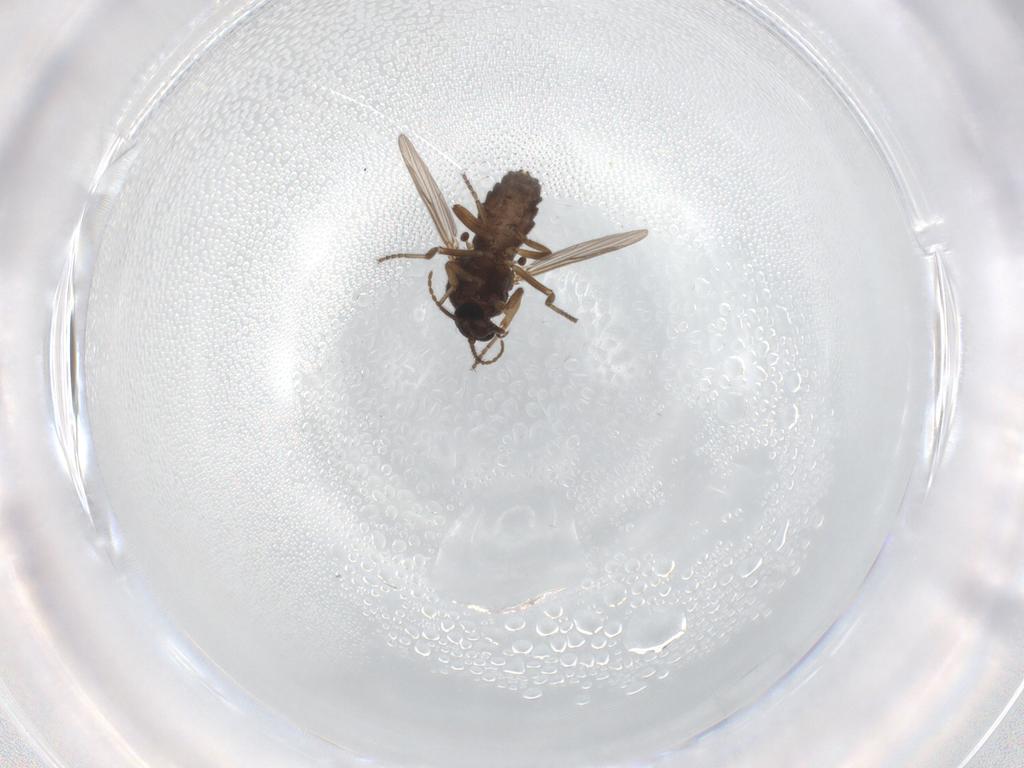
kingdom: Animalia
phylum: Arthropoda
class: Insecta
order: Diptera
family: Ceratopogonidae
